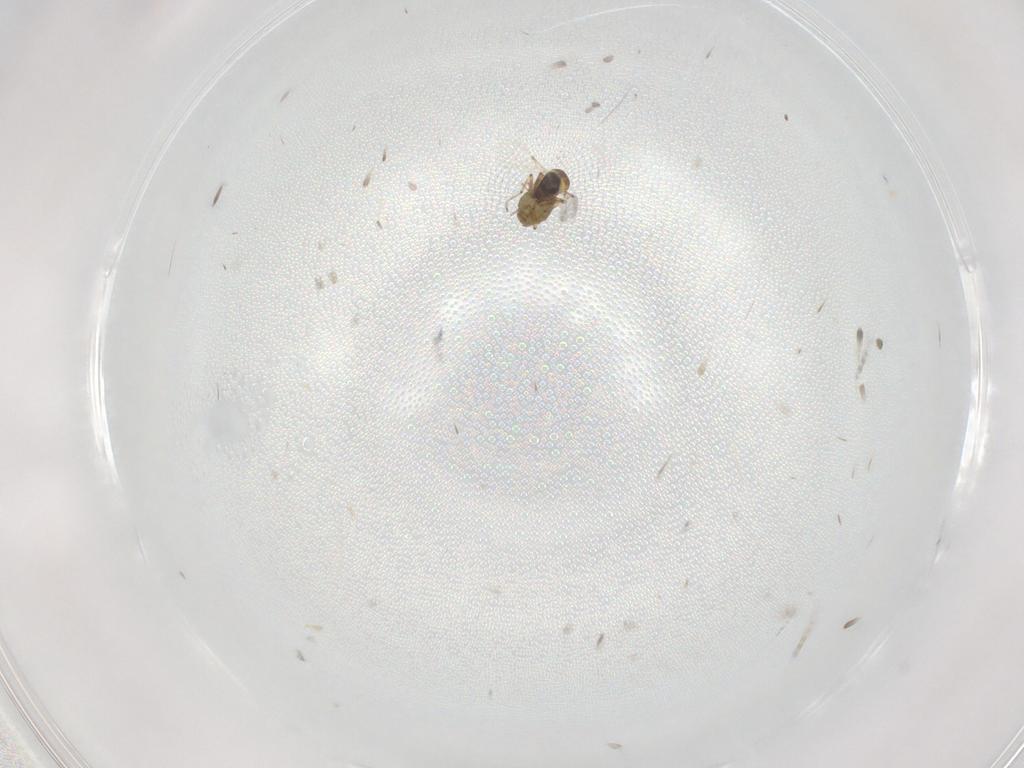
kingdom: Animalia
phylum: Arthropoda
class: Insecta
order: Diptera
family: Ceratopogonidae
